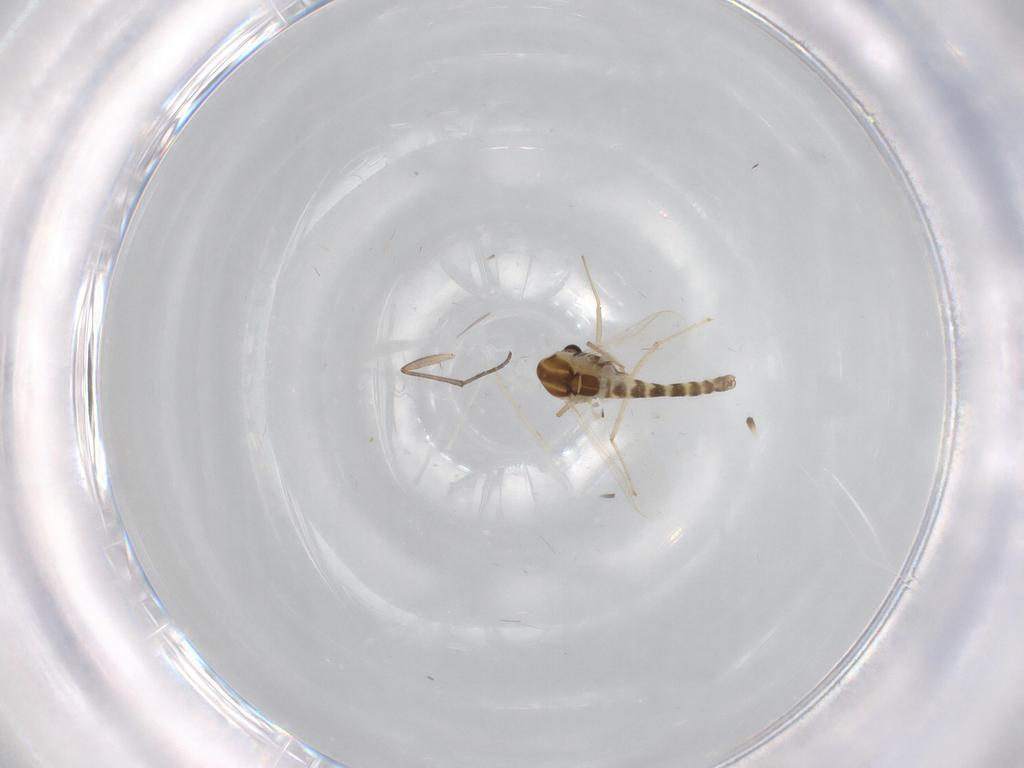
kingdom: Animalia
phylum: Arthropoda
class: Insecta
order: Diptera
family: Chironomidae
